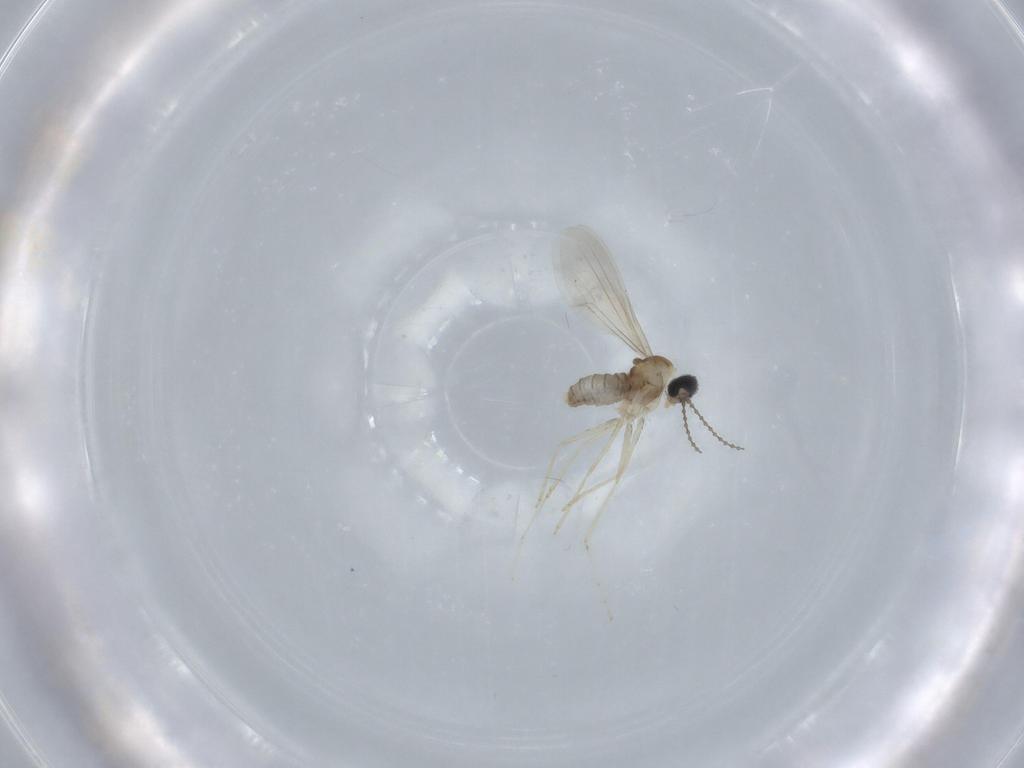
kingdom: Animalia
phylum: Arthropoda
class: Insecta
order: Diptera
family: Cecidomyiidae
